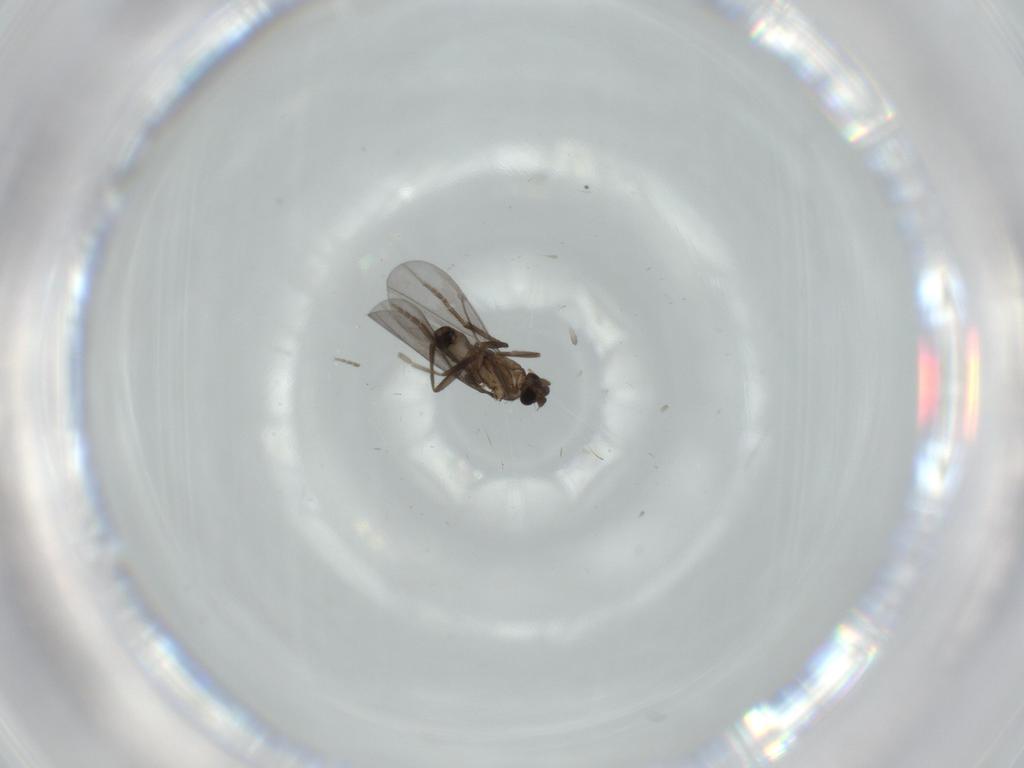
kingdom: Animalia
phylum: Arthropoda
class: Insecta
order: Diptera
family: Phoridae
